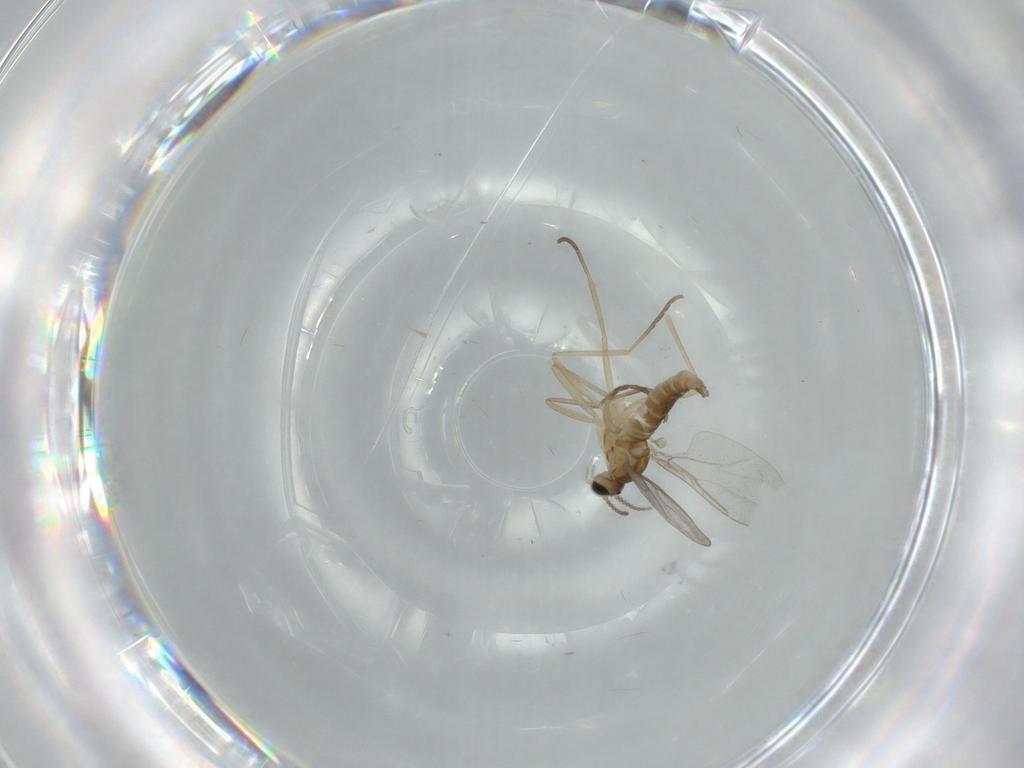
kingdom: Animalia
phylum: Arthropoda
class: Insecta
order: Diptera
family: Cecidomyiidae
